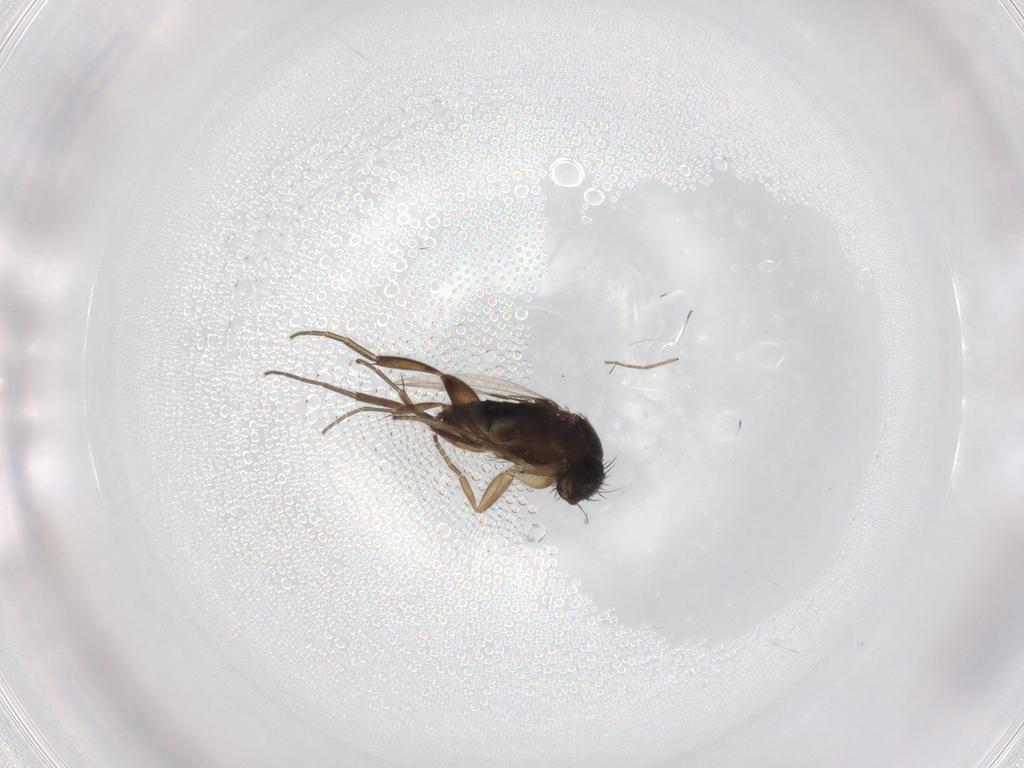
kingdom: Animalia
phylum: Arthropoda
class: Insecta
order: Diptera
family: Phoridae
